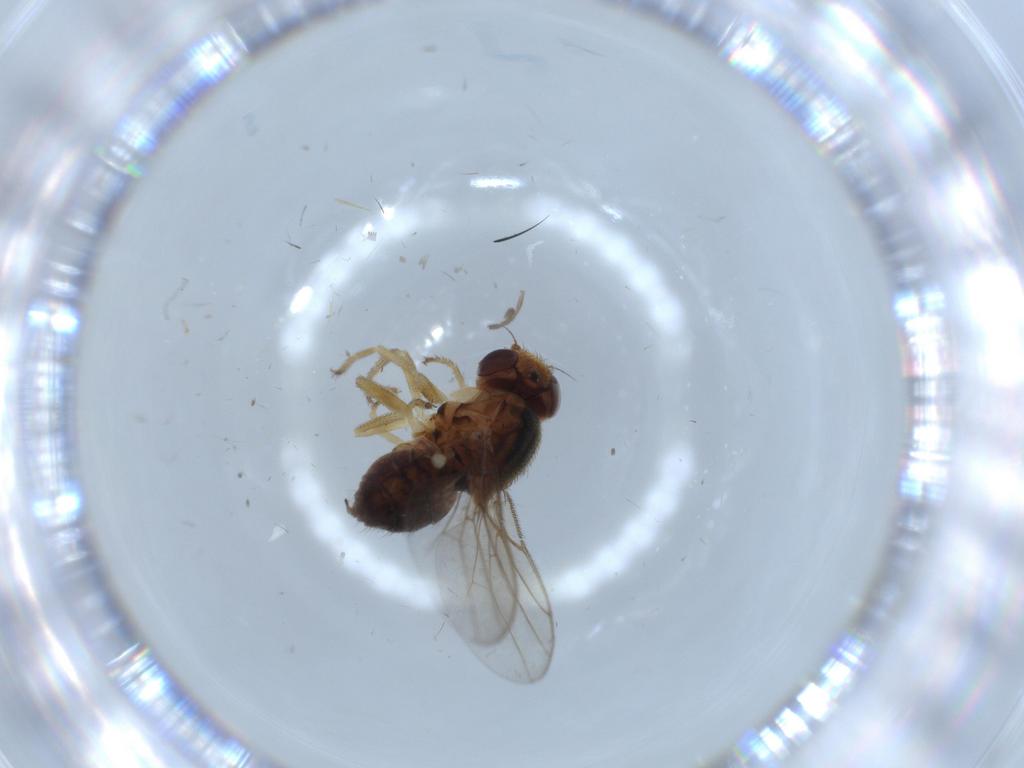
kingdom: Animalia
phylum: Arthropoda
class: Insecta
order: Diptera
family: Chloropidae
